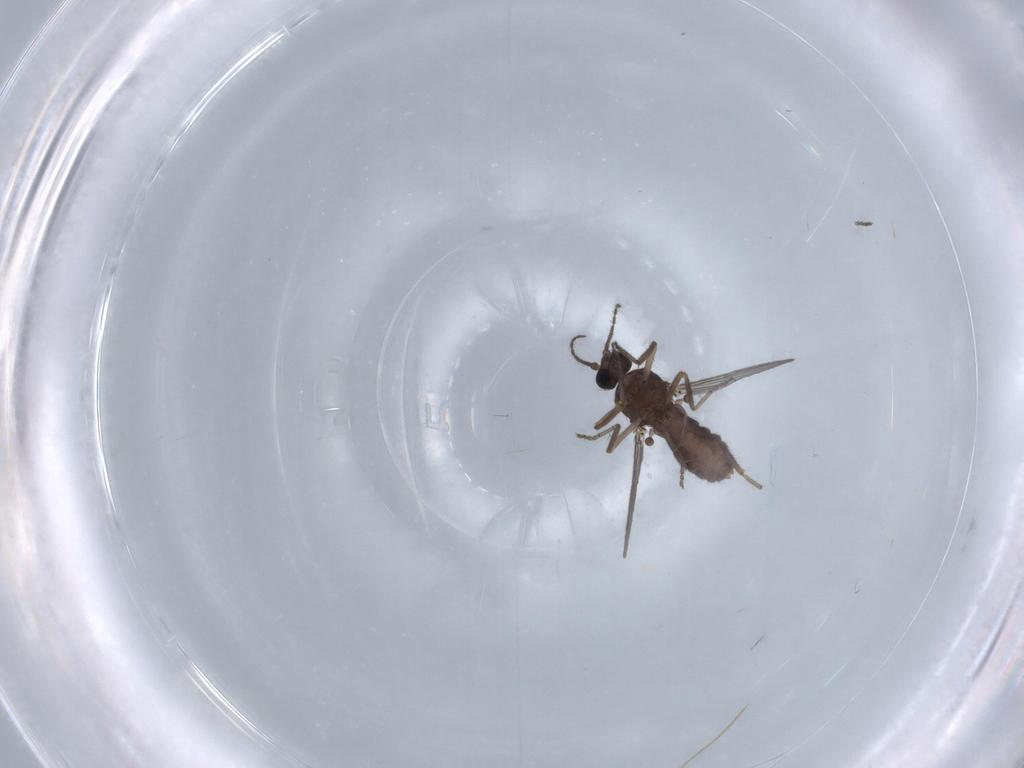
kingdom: Animalia
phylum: Arthropoda
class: Insecta
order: Diptera
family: Ceratopogonidae
